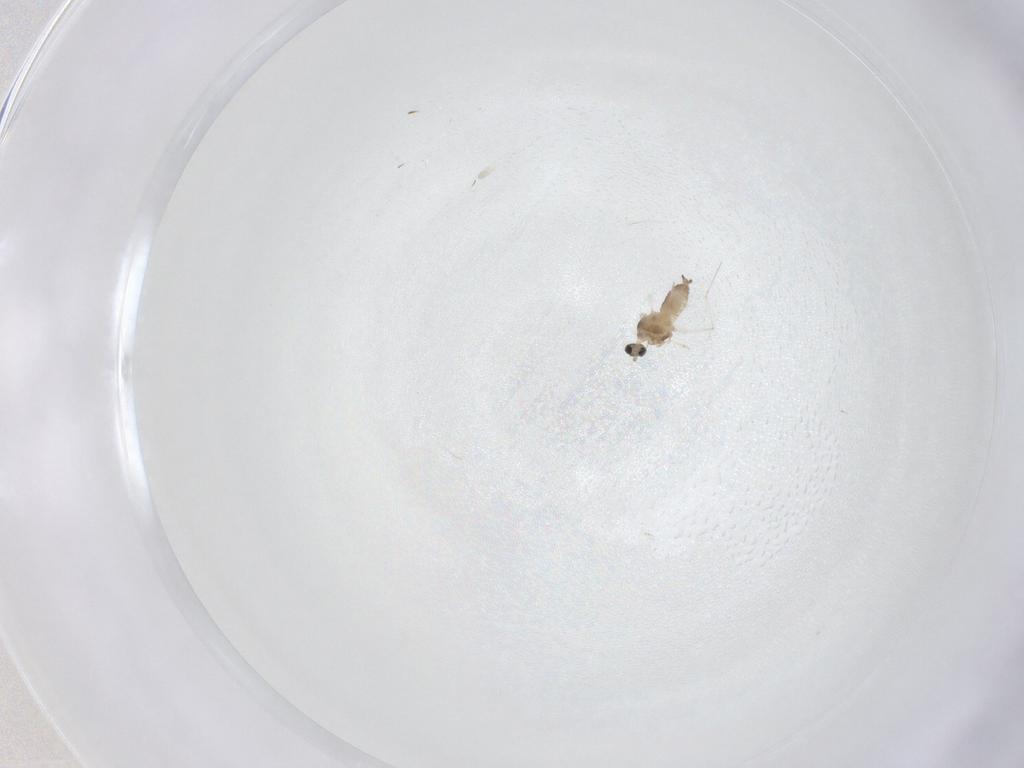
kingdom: Animalia
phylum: Arthropoda
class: Insecta
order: Diptera
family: Cecidomyiidae
